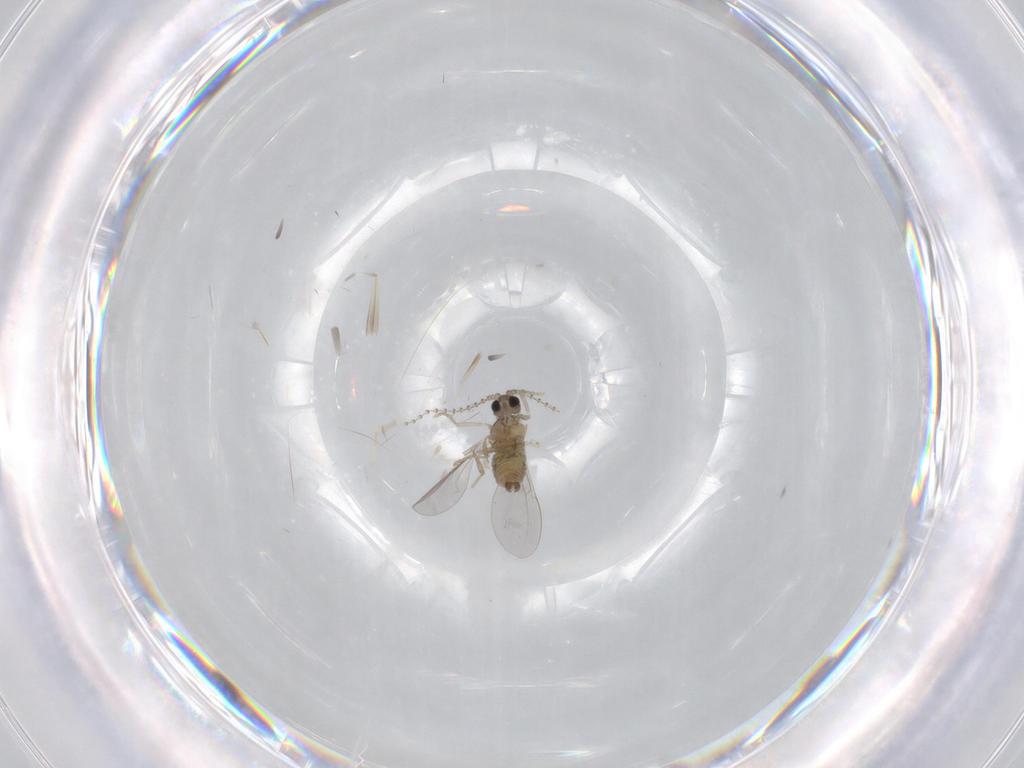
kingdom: Animalia
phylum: Arthropoda
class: Insecta
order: Diptera
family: Cecidomyiidae
